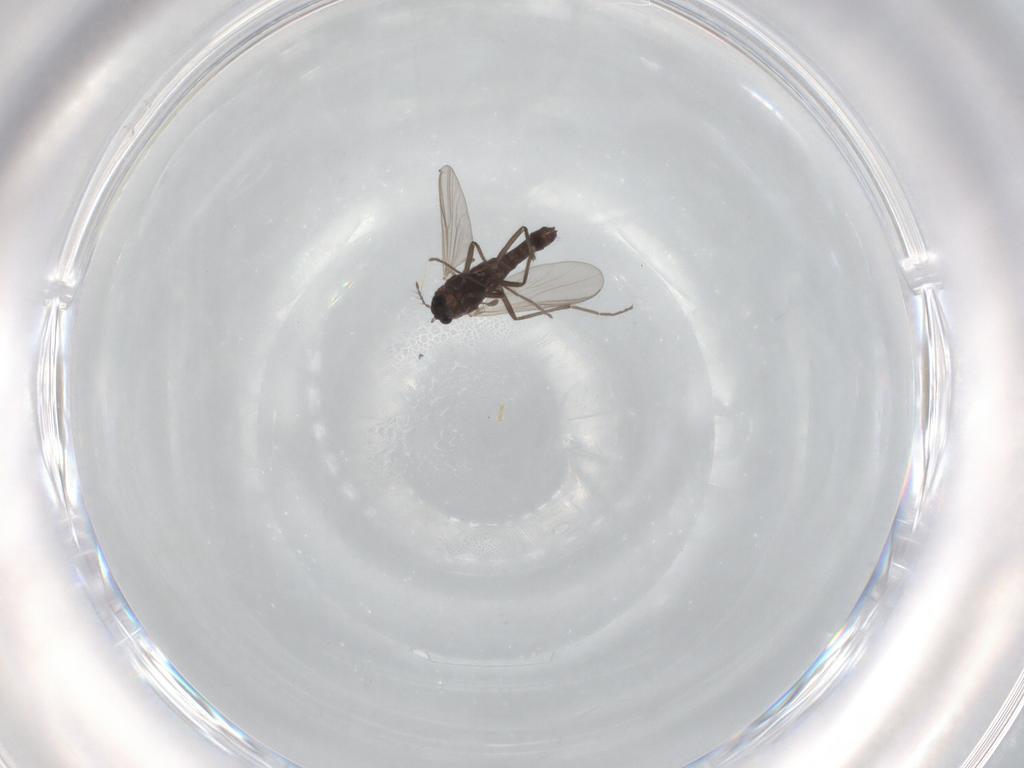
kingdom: Animalia
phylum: Arthropoda
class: Insecta
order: Diptera
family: Chironomidae
